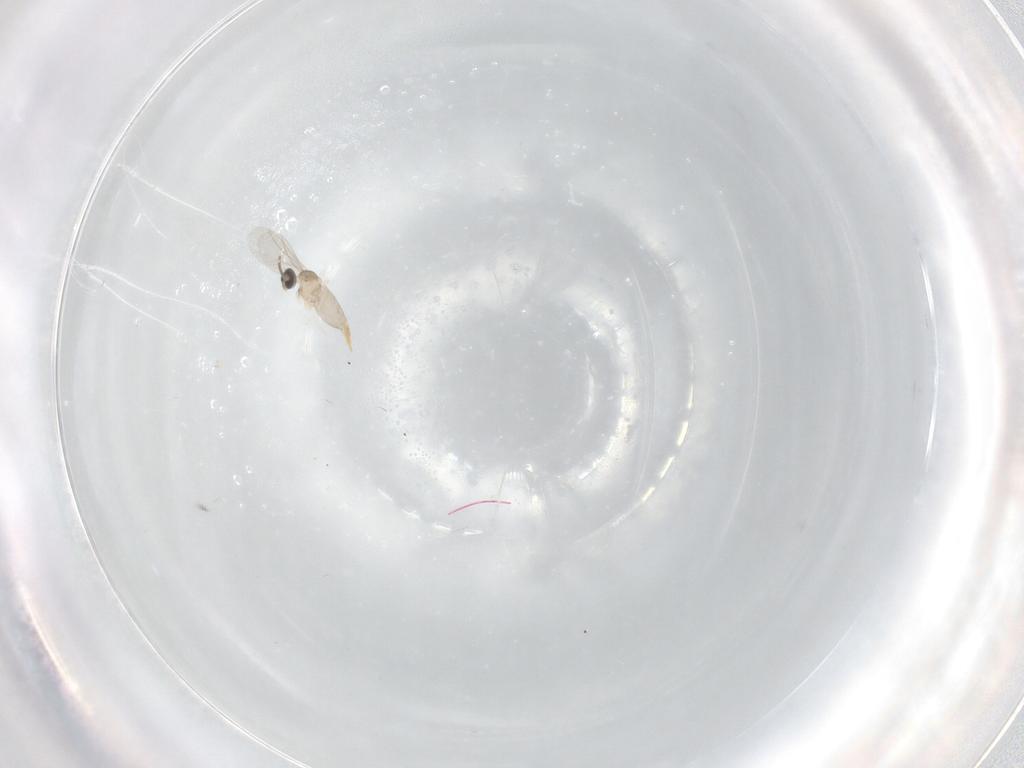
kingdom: Animalia
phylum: Arthropoda
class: Insecta
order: Diptera
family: Cecidomyiidae
